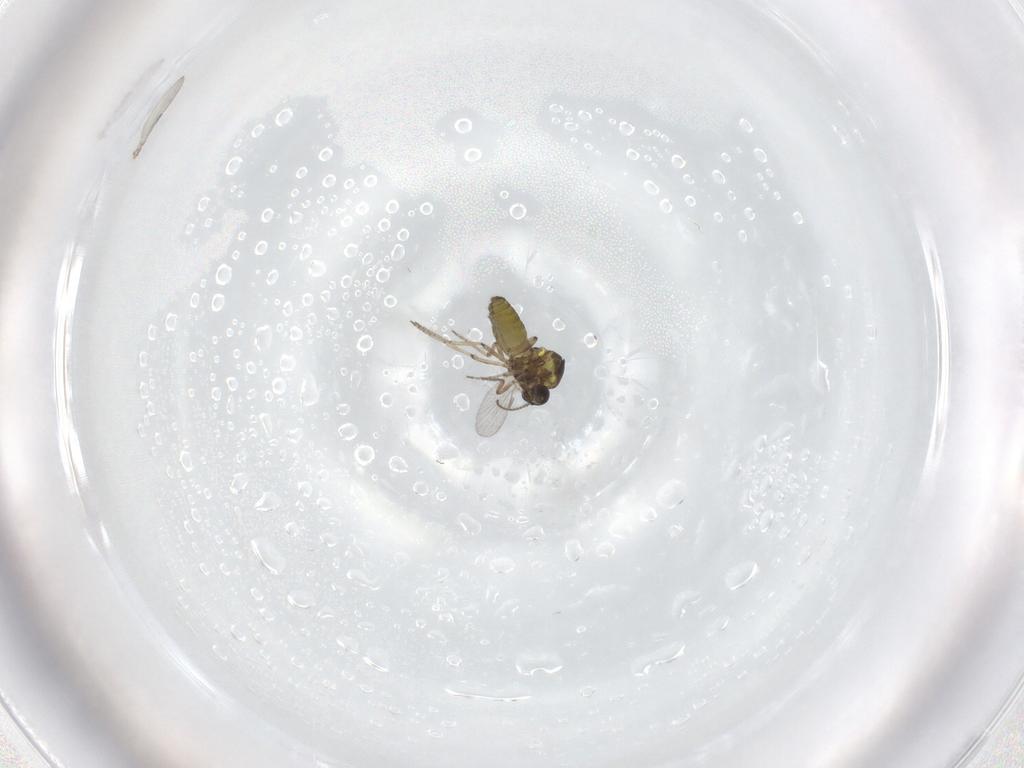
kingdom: Animalia
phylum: Arthropoda
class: Insecta
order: Diptera
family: Ceratopogonidae
